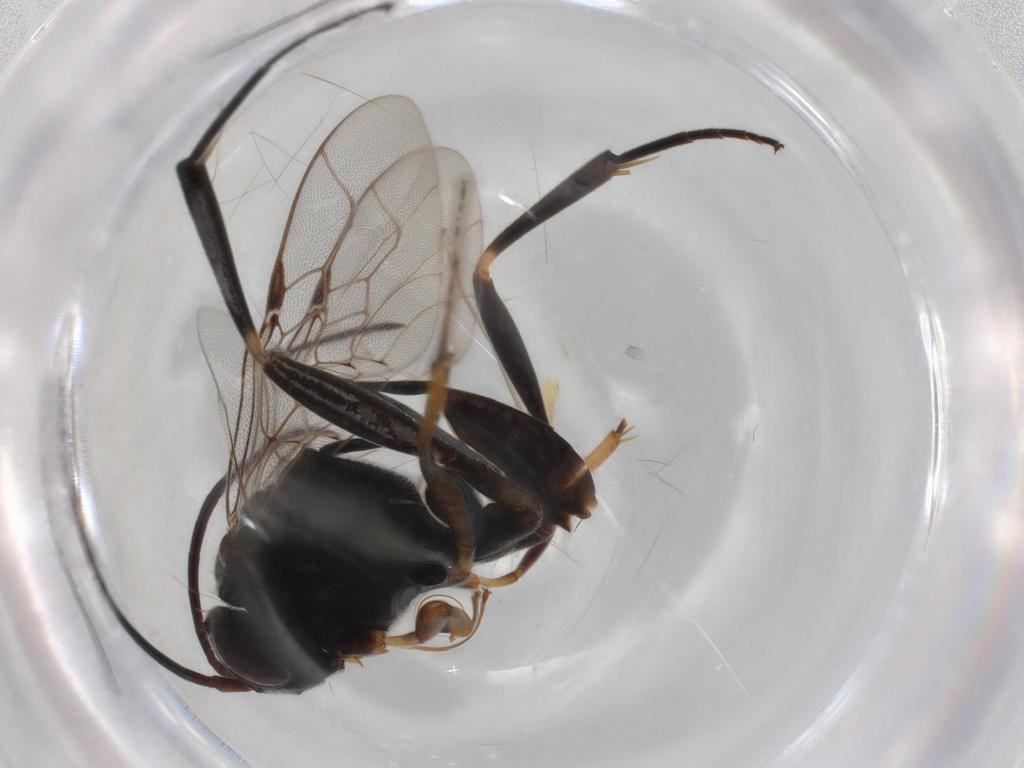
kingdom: Animalia
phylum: Arthropoda
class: Insecta
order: Hymenoptera
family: Evaniidae
